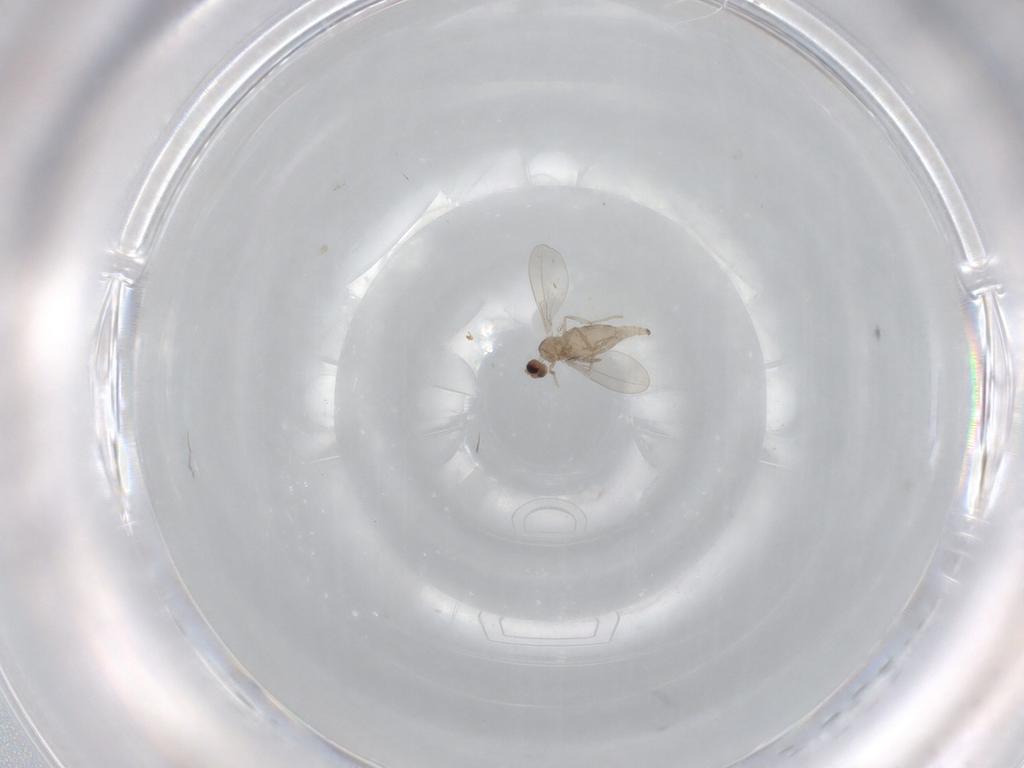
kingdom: Animalia
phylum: Arthropoda
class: Insecta
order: Diptera
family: Cecidomyiidae
